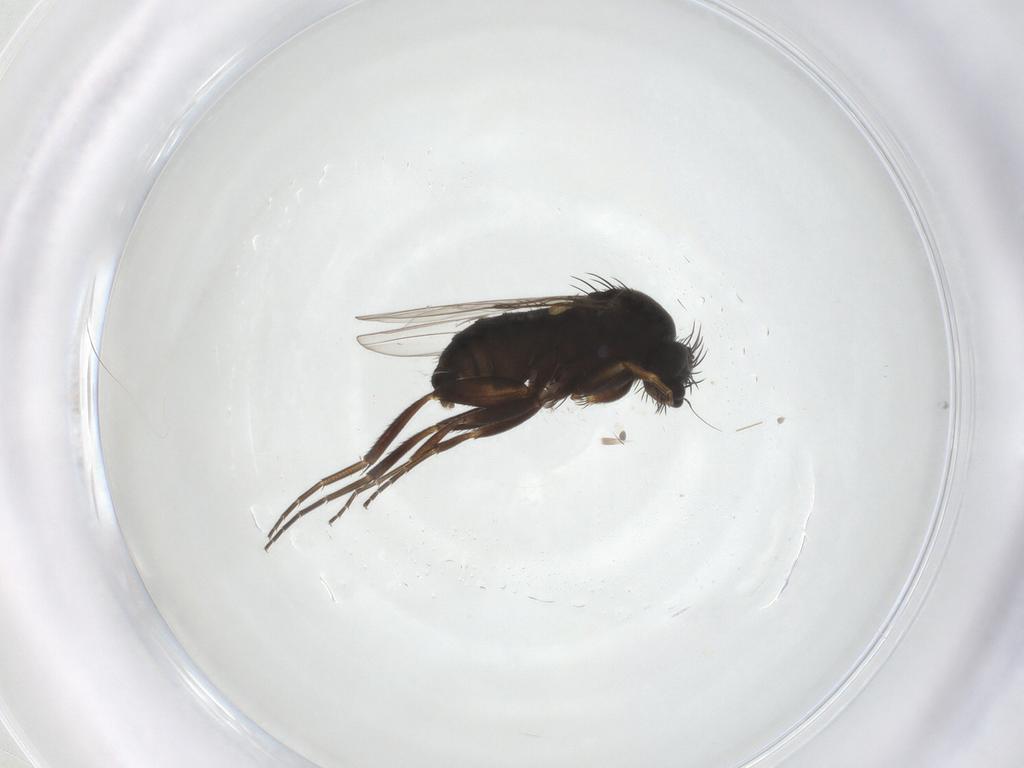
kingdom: Animalia
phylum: Arthropoda
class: Insecta
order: Diptera
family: Phoridae
